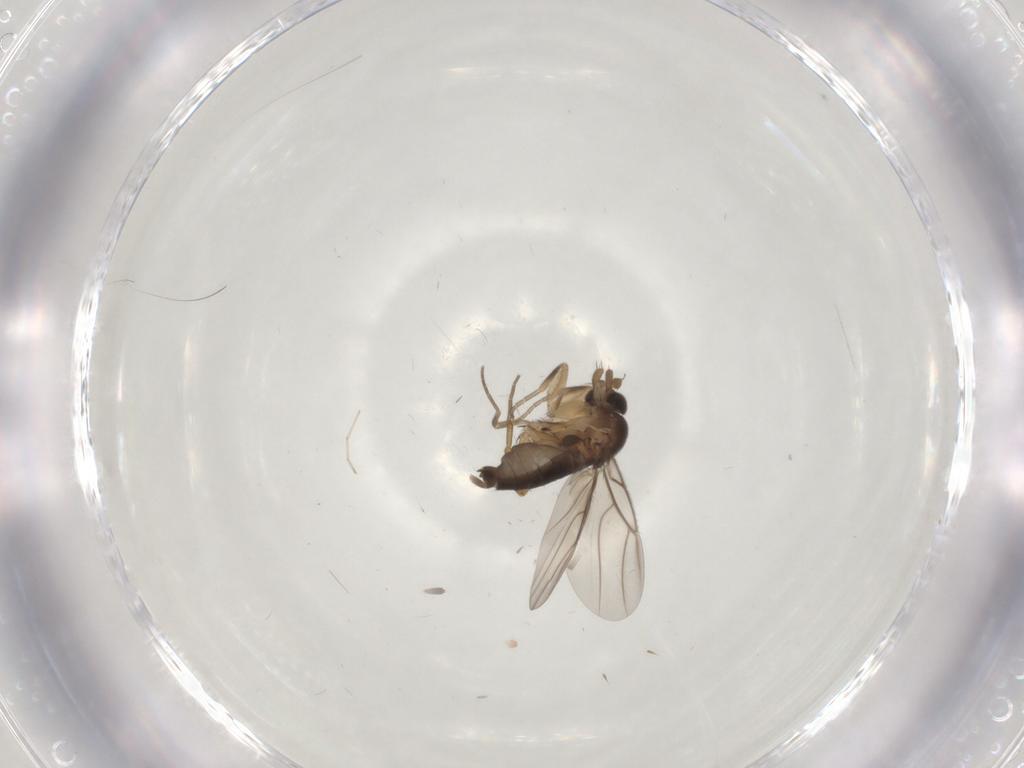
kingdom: Animalia
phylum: Arthropoda
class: Insecta
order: Diptera
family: Phoridae
